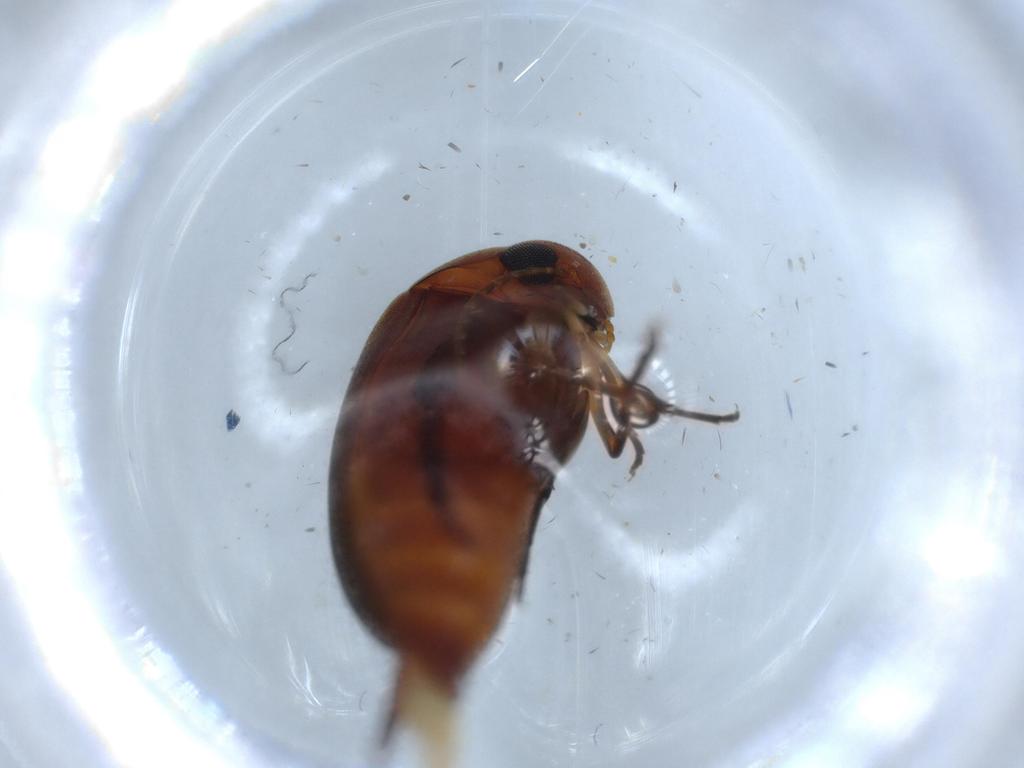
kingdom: Animalia
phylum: Arthropoda
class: Insecta
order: Coleoptera
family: Mordellidae
